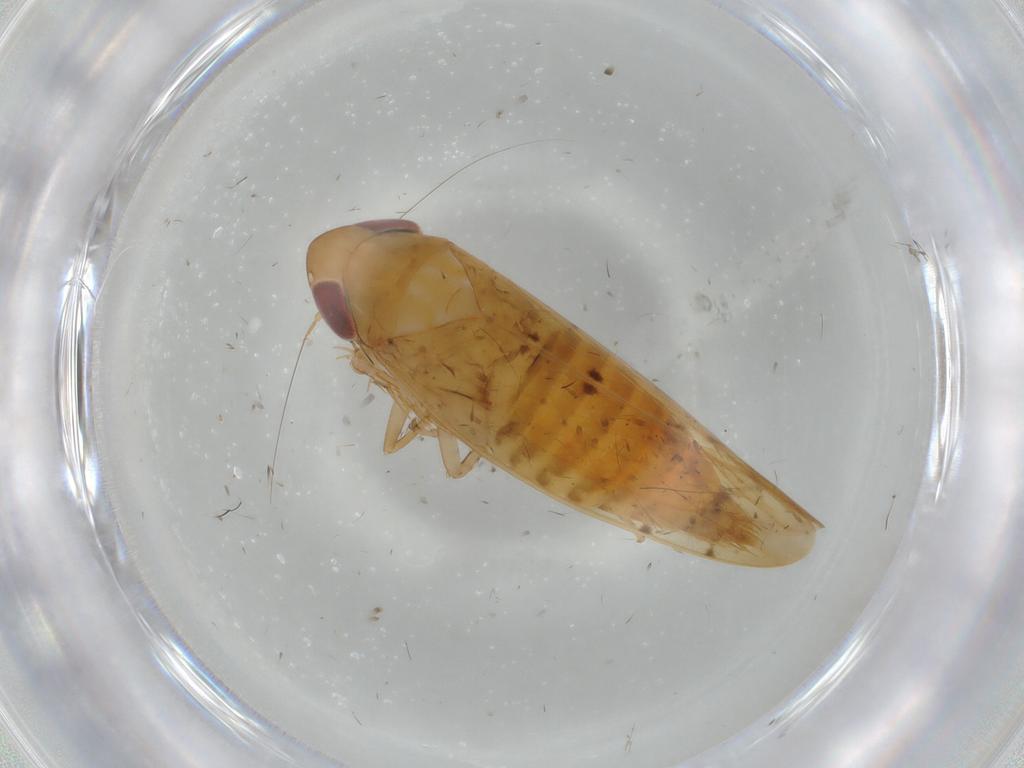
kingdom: Animalia
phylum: Arthropoda
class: Insecta
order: Hemiptera
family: Cicadellidae
